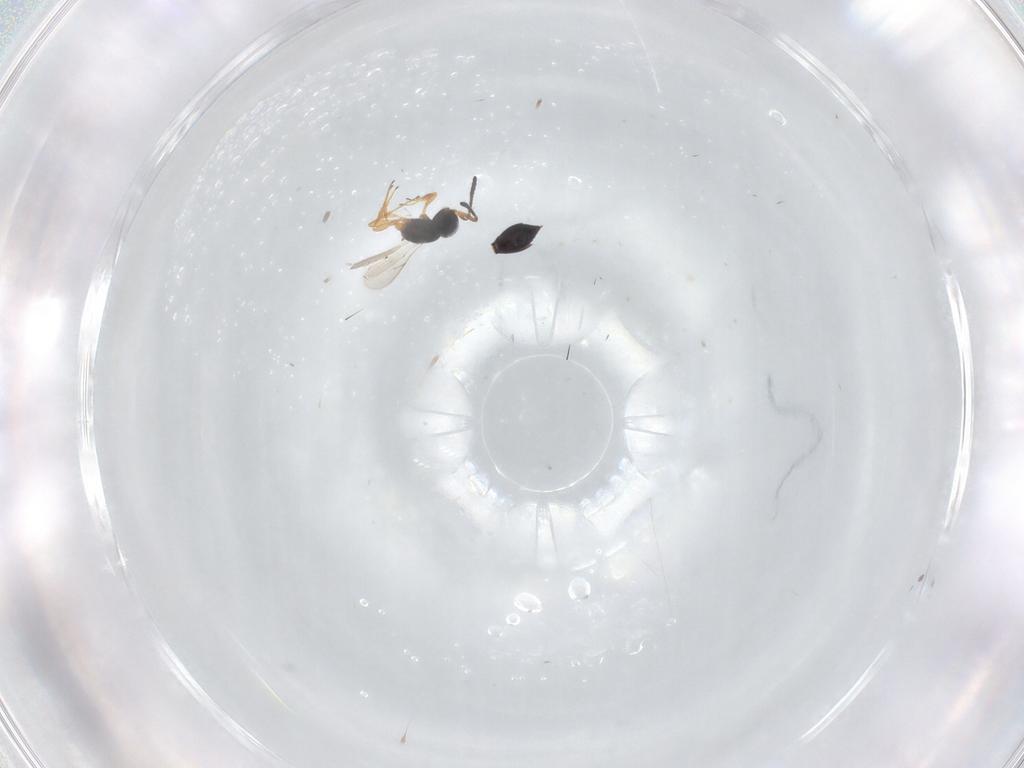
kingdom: Animalia
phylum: Arthropoda
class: Insecta
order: Hymenoptera
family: Scelionidae
